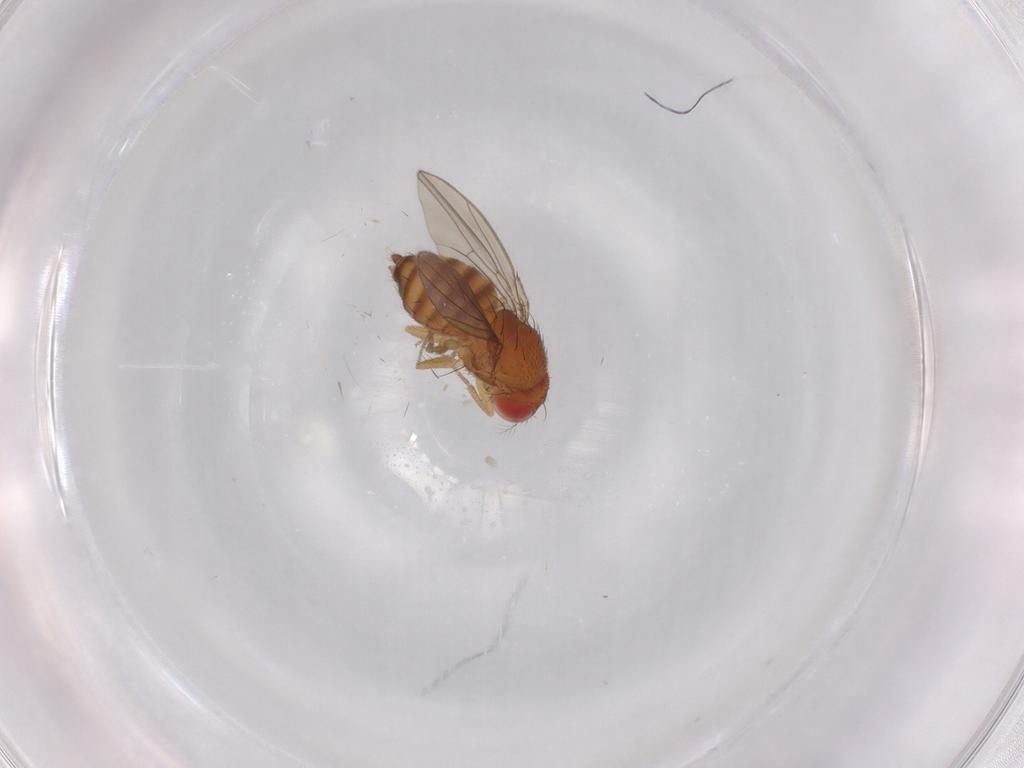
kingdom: Animalia
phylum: Arthropoda
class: Insecta
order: Diptera
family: Drosophilidae
